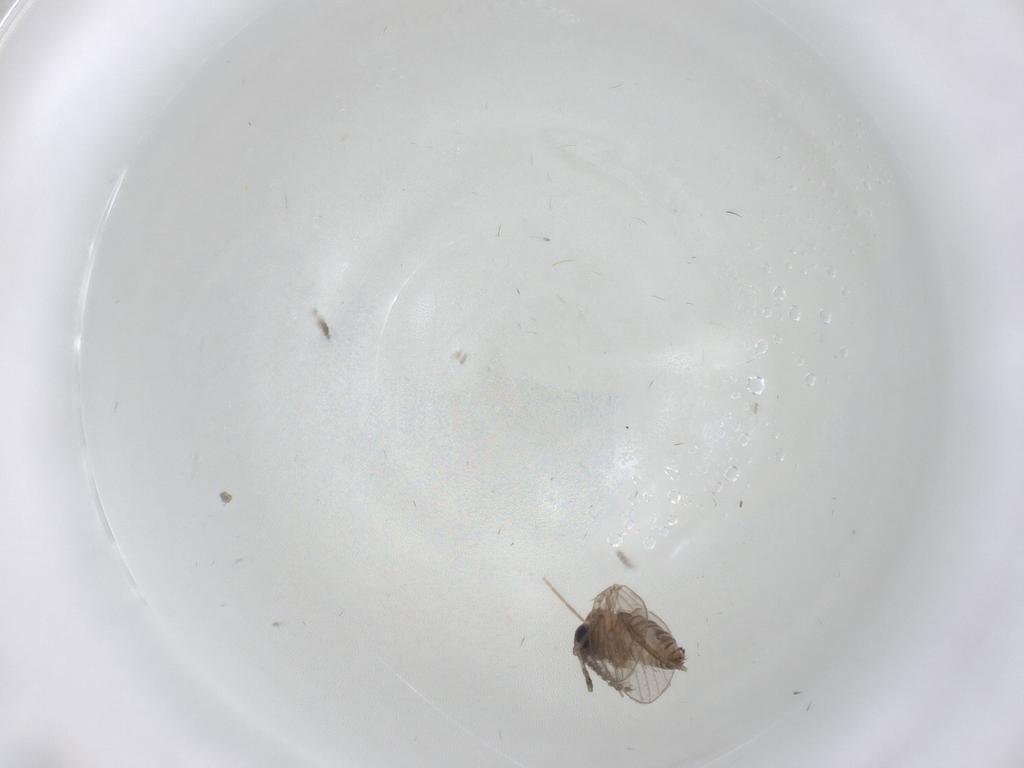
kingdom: Animalia
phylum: Arthropoda
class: Insecta
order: Diptera
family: Chironomidae
